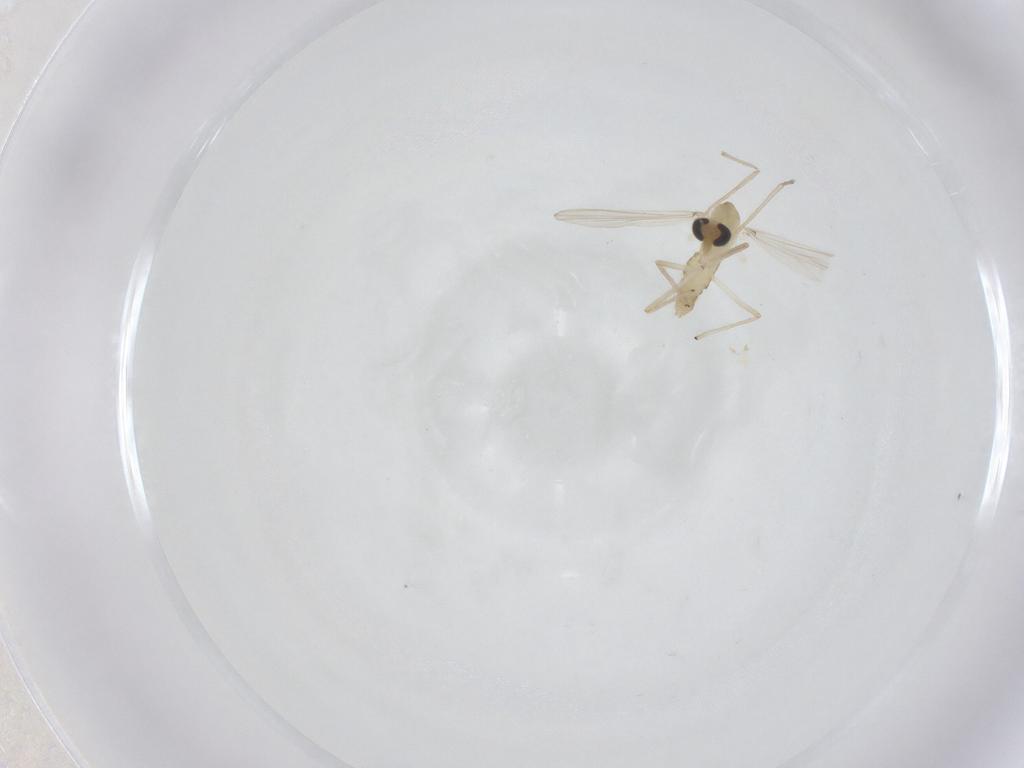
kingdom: Animalia
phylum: Arthropoda
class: Insecta
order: Diptera
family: Chironomidae
